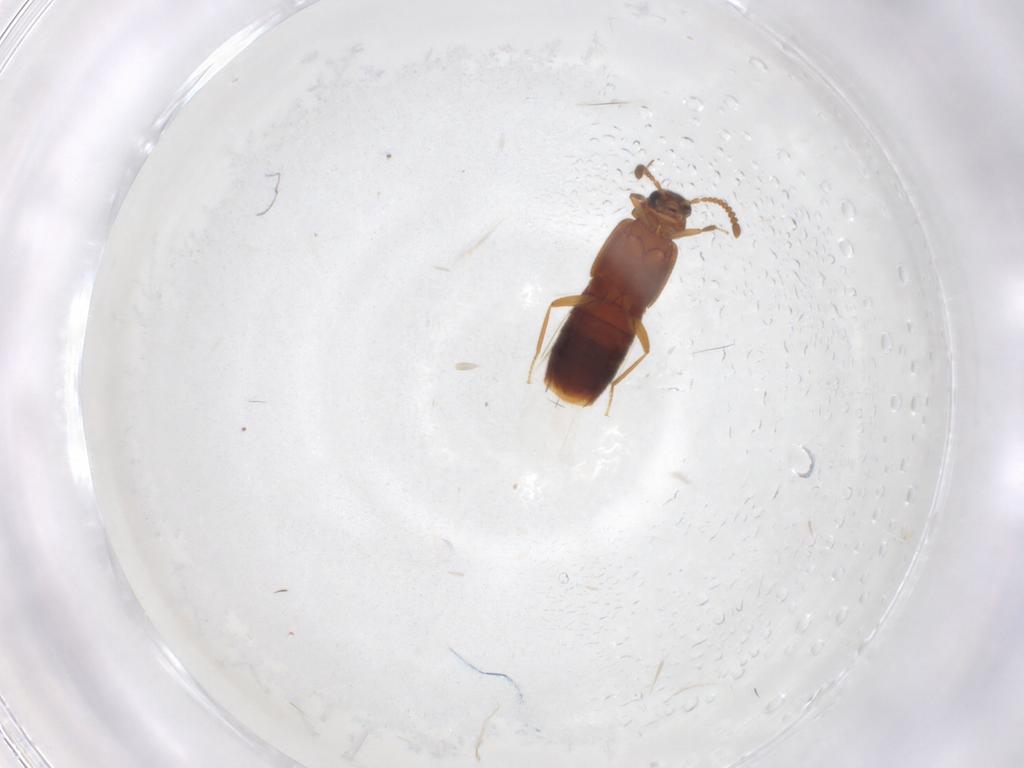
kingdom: Animalia
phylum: Arthropoda
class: Insecta
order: Coleoptera
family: Staphylinidae
